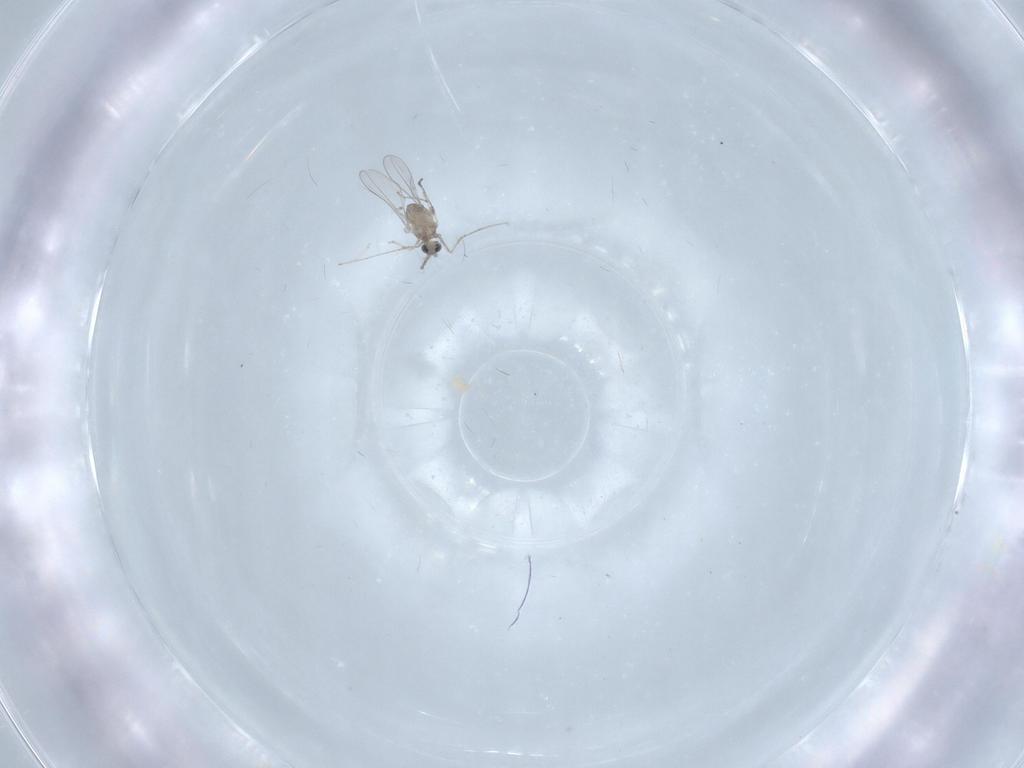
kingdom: Animalia
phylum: Arthropoda
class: Insecta
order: Diptera
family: Cecidomyiidae
